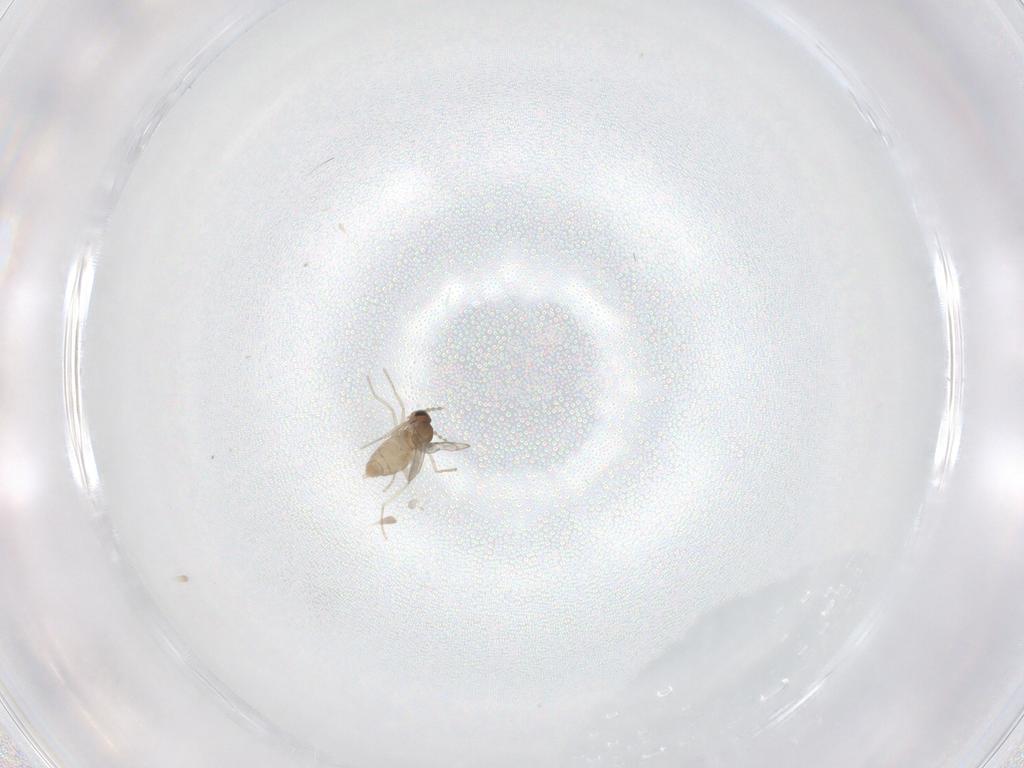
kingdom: Animalia
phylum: Arthropoda
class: Insecta
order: Diptera
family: Cecidomyiidae
